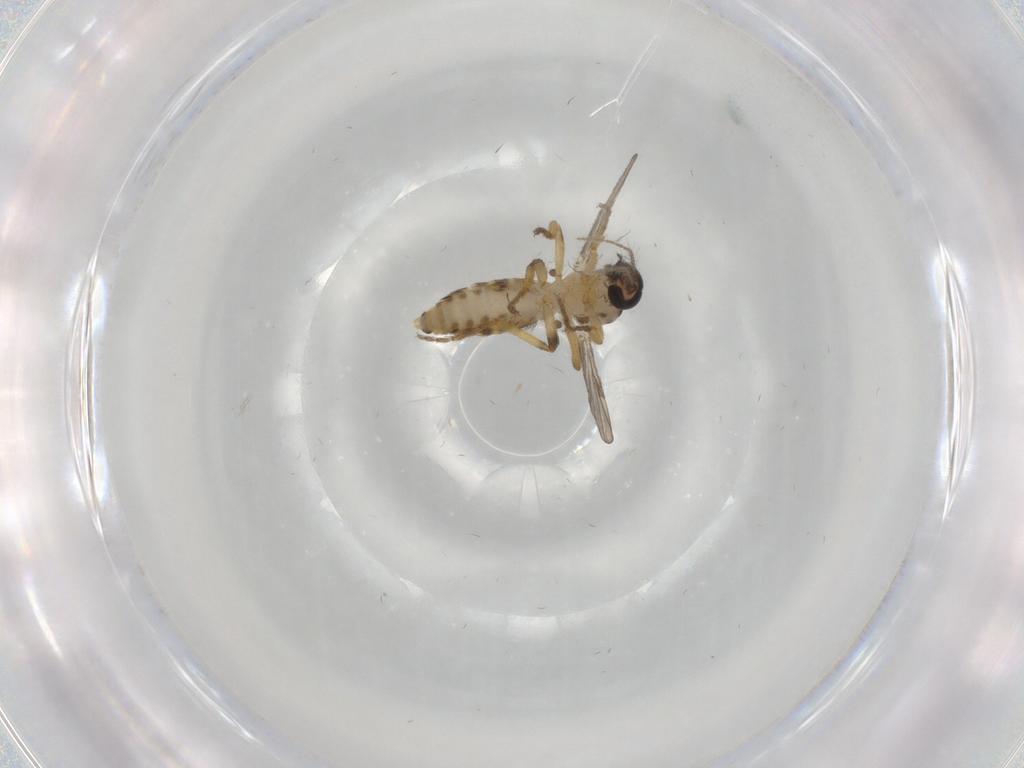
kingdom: Animalia
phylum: Arthropoda
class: Insecta
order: Diptera
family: Ceratopogonidae
